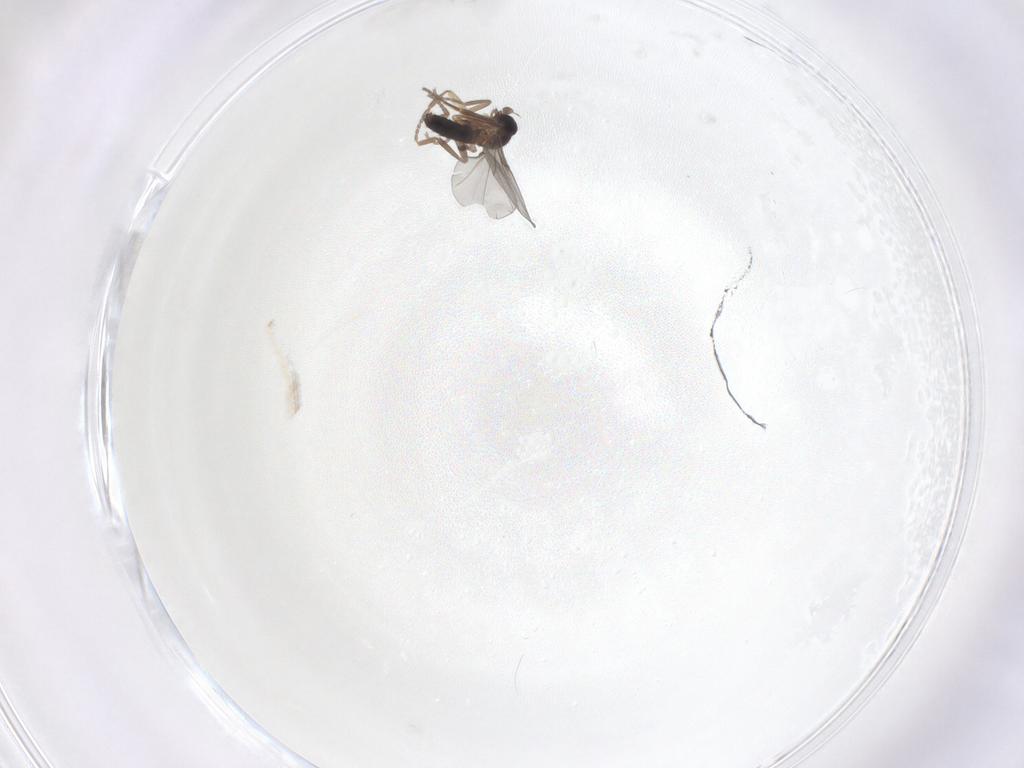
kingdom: Animalia
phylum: Arthropoda
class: Insecta
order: Diptera
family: Phoridae
